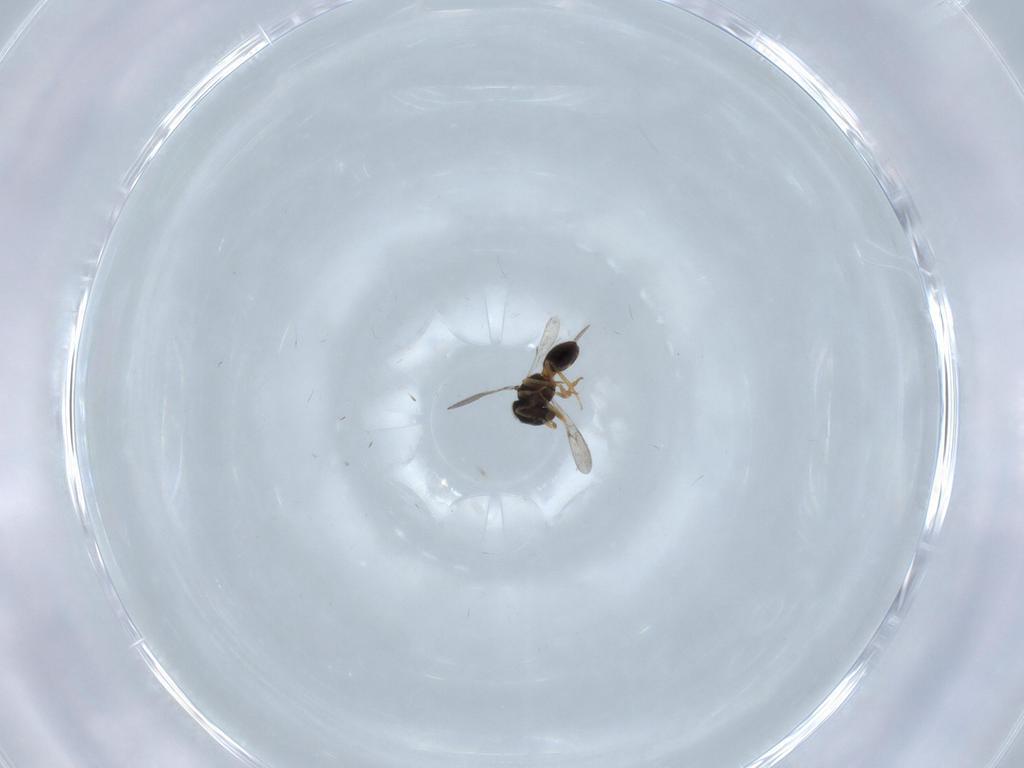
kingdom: Animalia
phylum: Arthropoda
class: Insecta
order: Hymenoptera
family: Scelionidae
